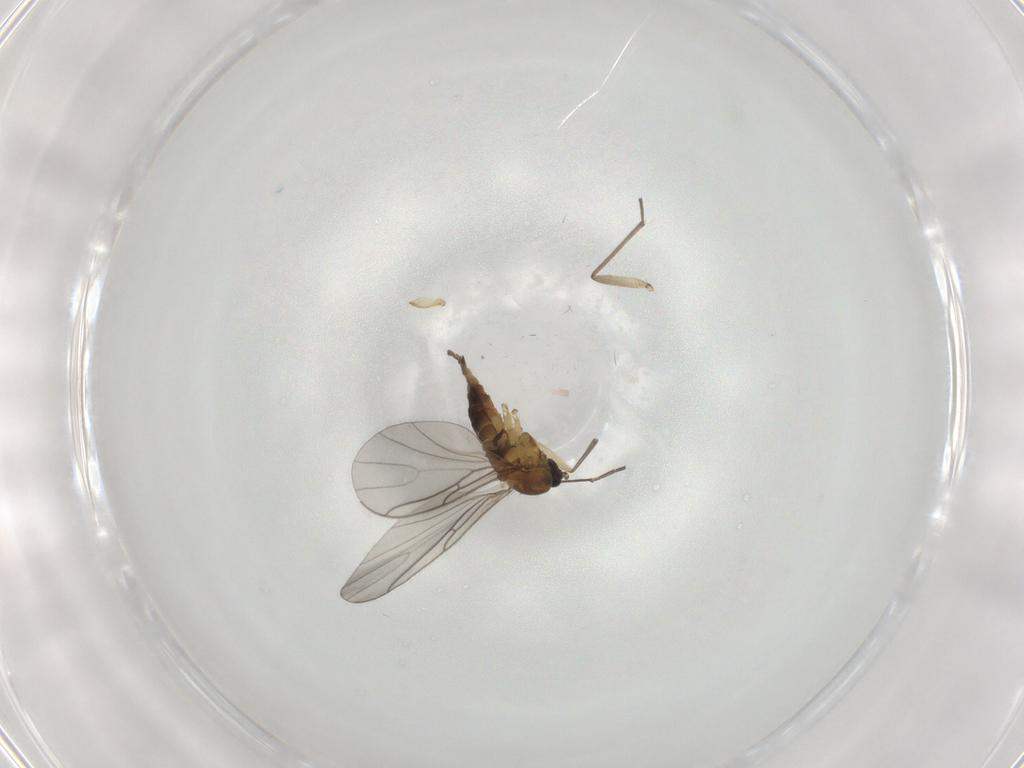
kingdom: Animalia
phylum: Arthropoda
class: Insecta
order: Diptera
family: Sciaridae
